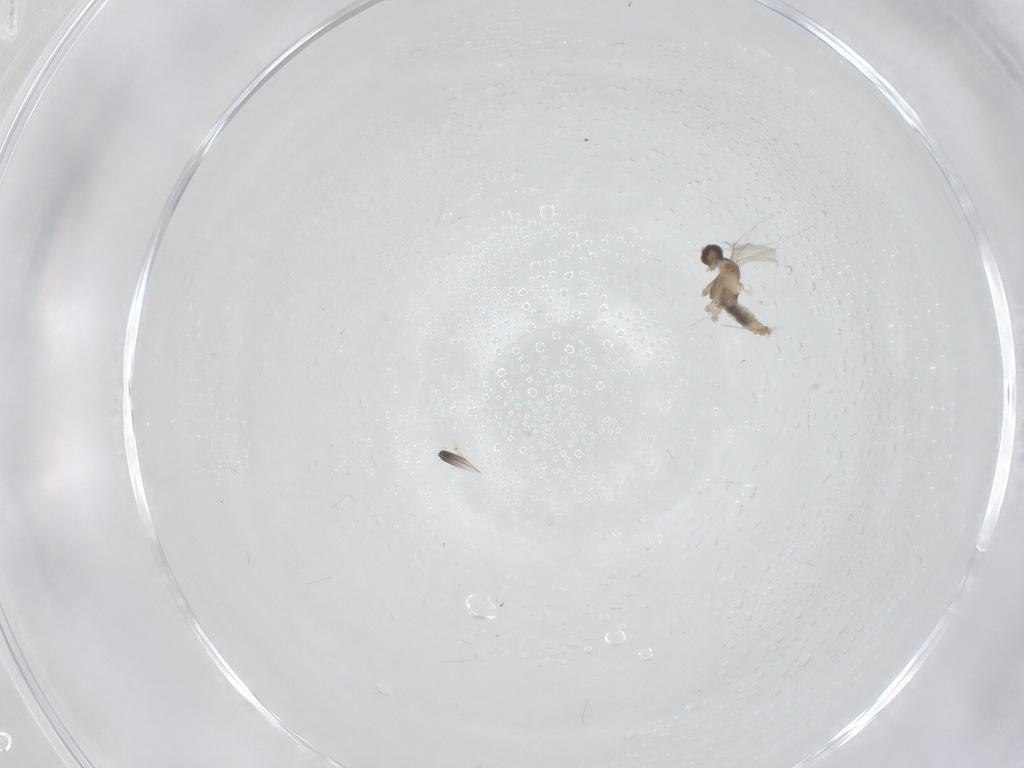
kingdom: Animalia
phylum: Arthropoda
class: Insecta
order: Diptera
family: Cecidomyiidae
